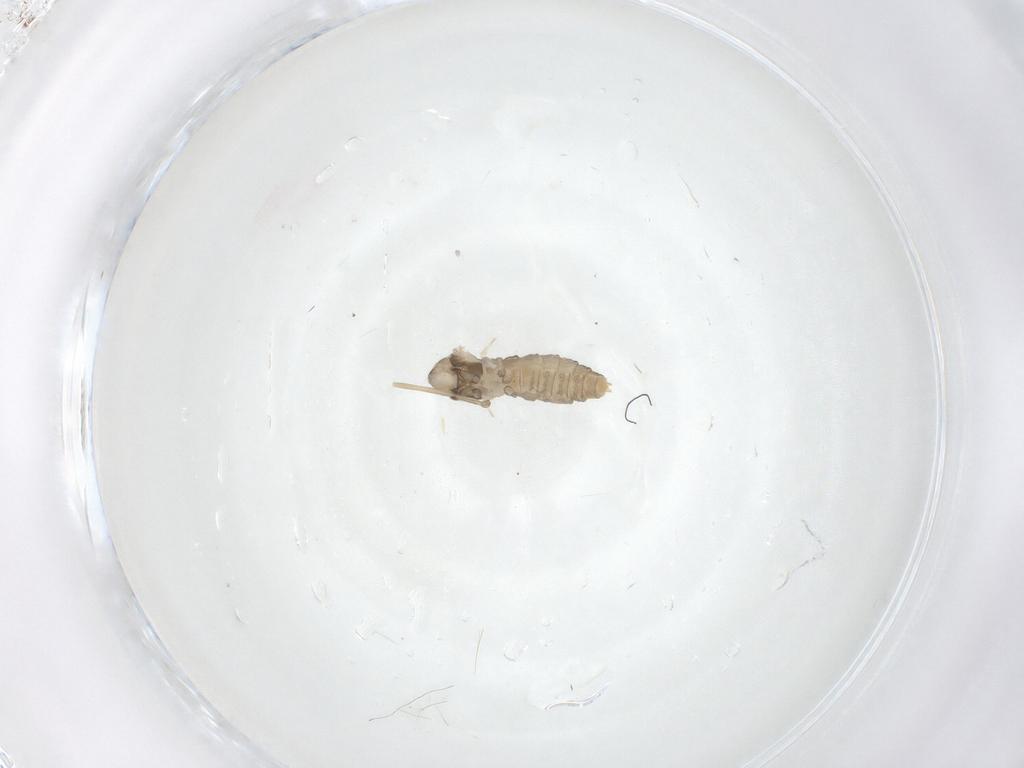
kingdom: Animalia
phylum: Arthropoda
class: Insecta
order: Diptera
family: Cecidomyiidae
